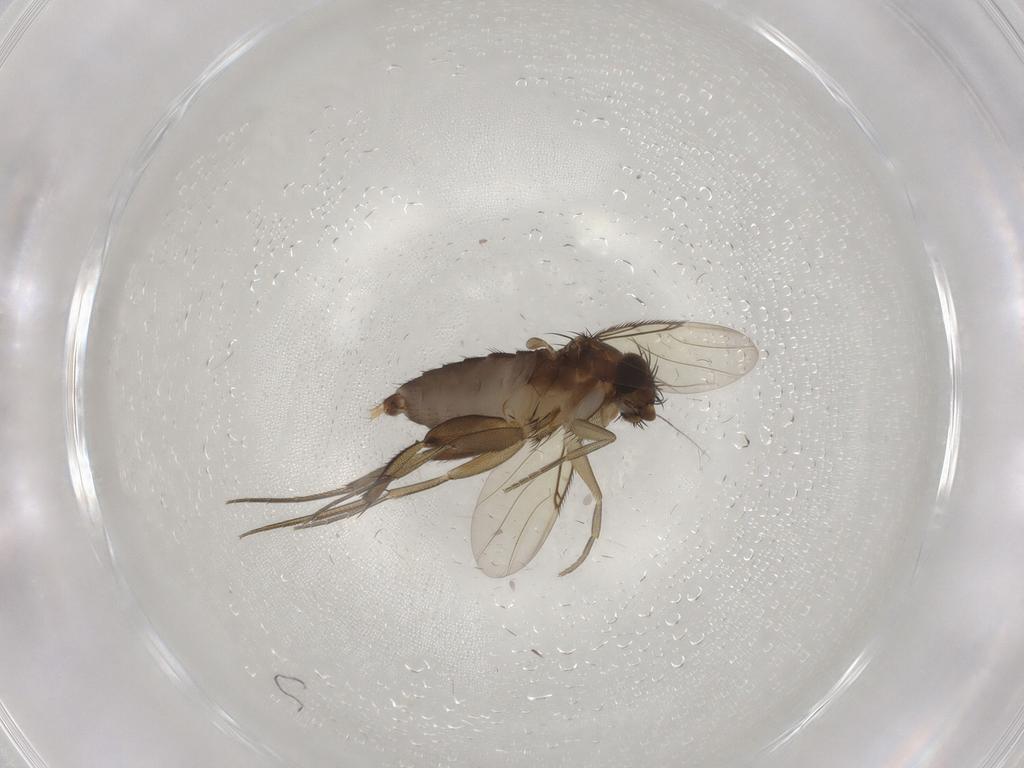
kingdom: Animalia
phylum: Arthropoda
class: Insecta
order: Diptera
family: Phoridae
